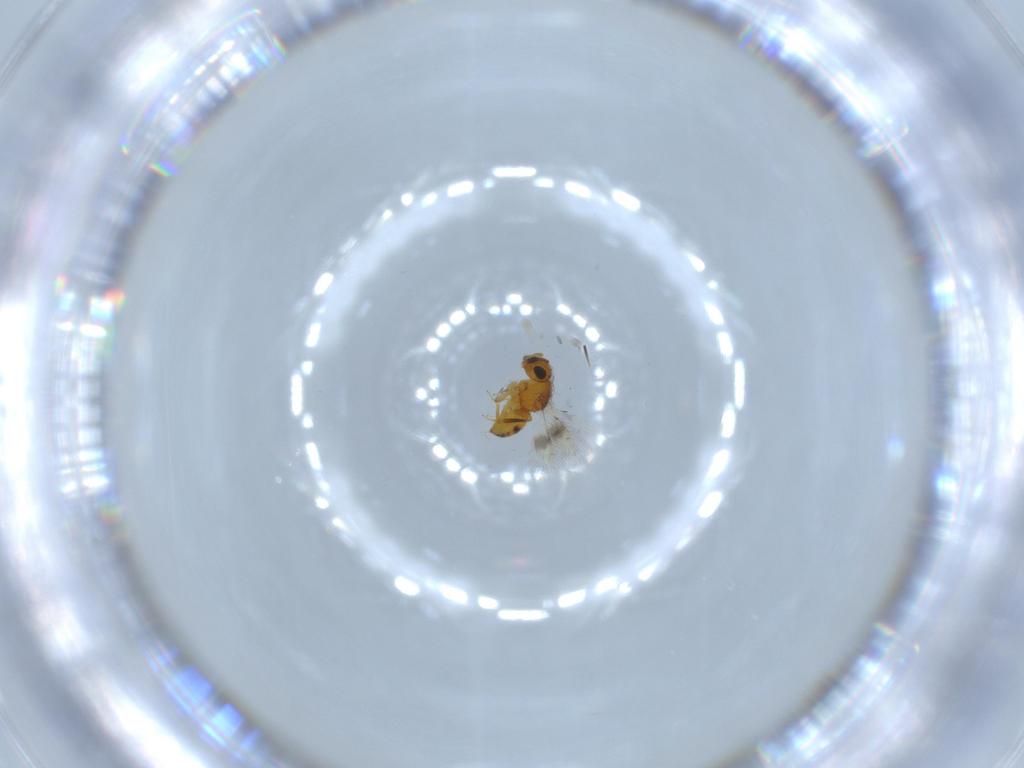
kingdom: Animalia
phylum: Arthropoda
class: Insecta
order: Hymenoptera
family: Scelionidae
